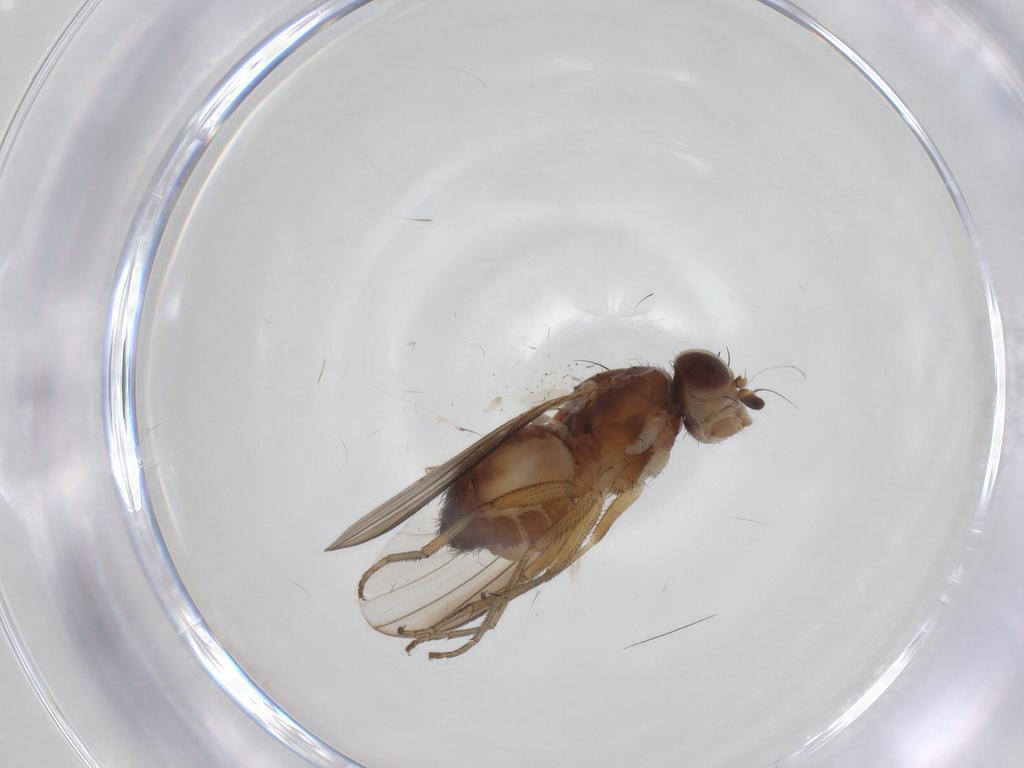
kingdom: Animalia
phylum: Arthropoda
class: Insecta
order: Diptera
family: Heleomyzidae
